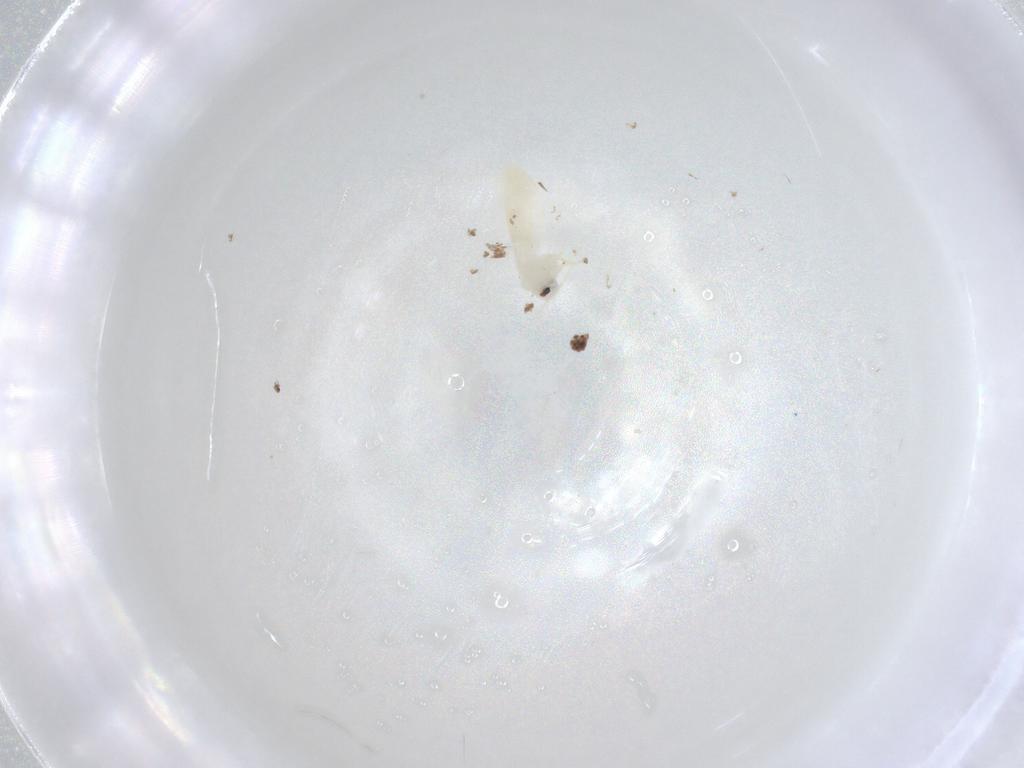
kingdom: Animalia
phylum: Arthropoda
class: Insecta
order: Hemiptera
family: Aleyrodidae
